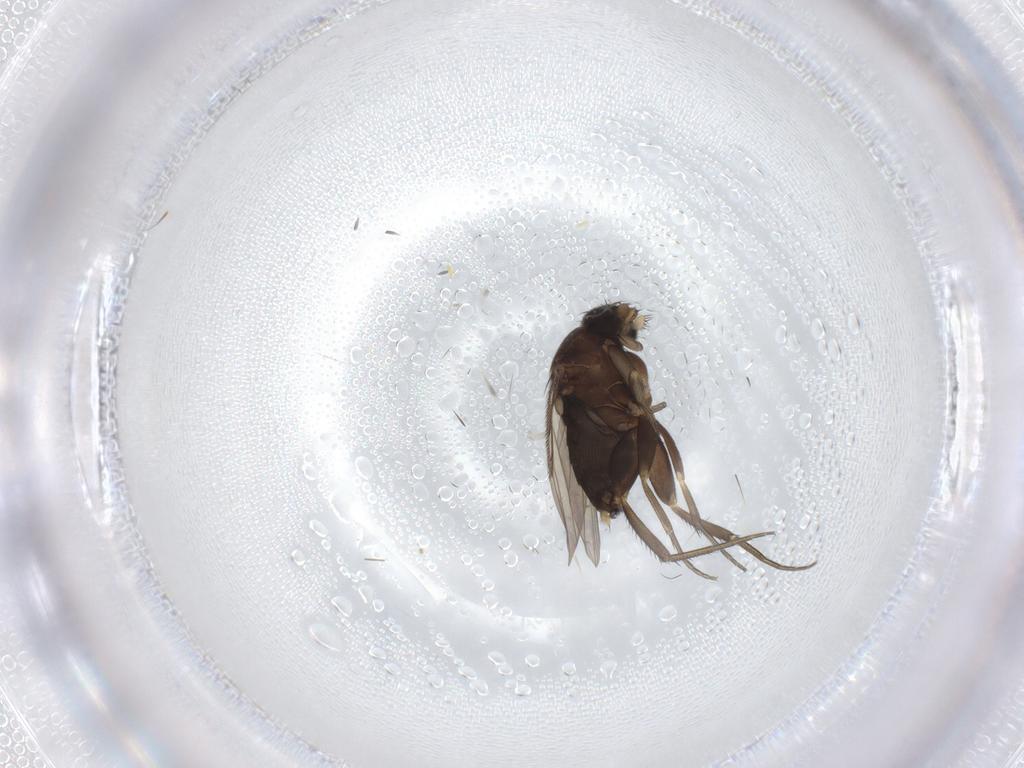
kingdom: Animalia
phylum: Arthropoda
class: Insecta
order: Diptera
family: Phoridae
